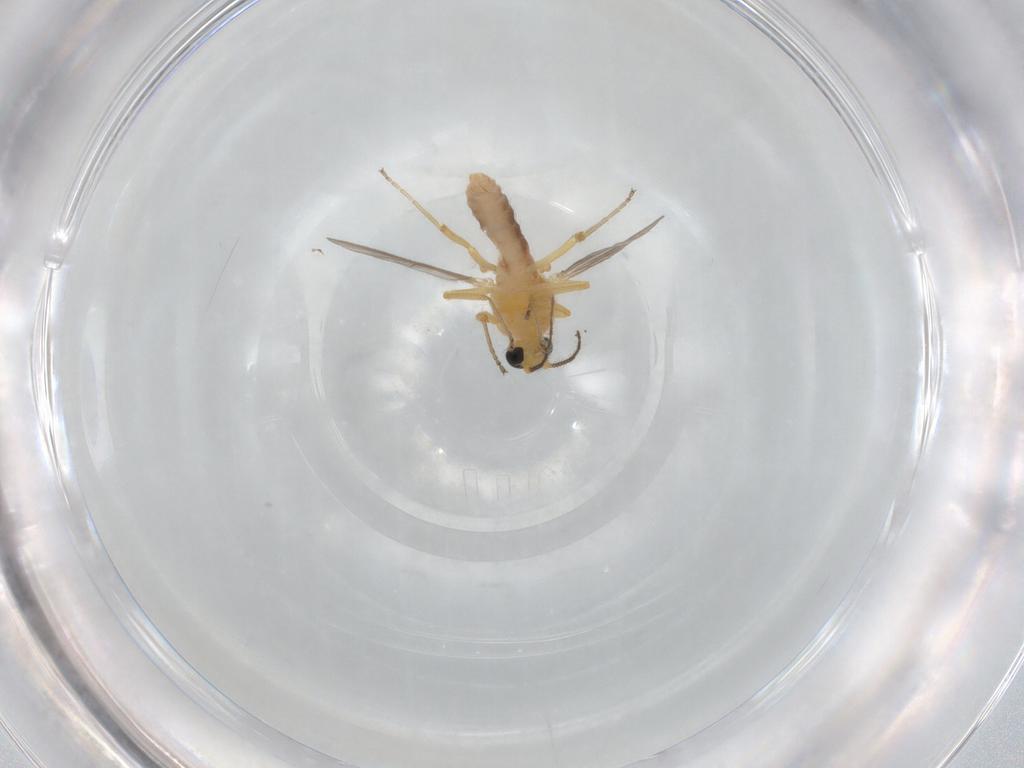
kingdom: Animalia
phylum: Arthropoda
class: Insecta
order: Diptera
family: Ceratopogonidae
